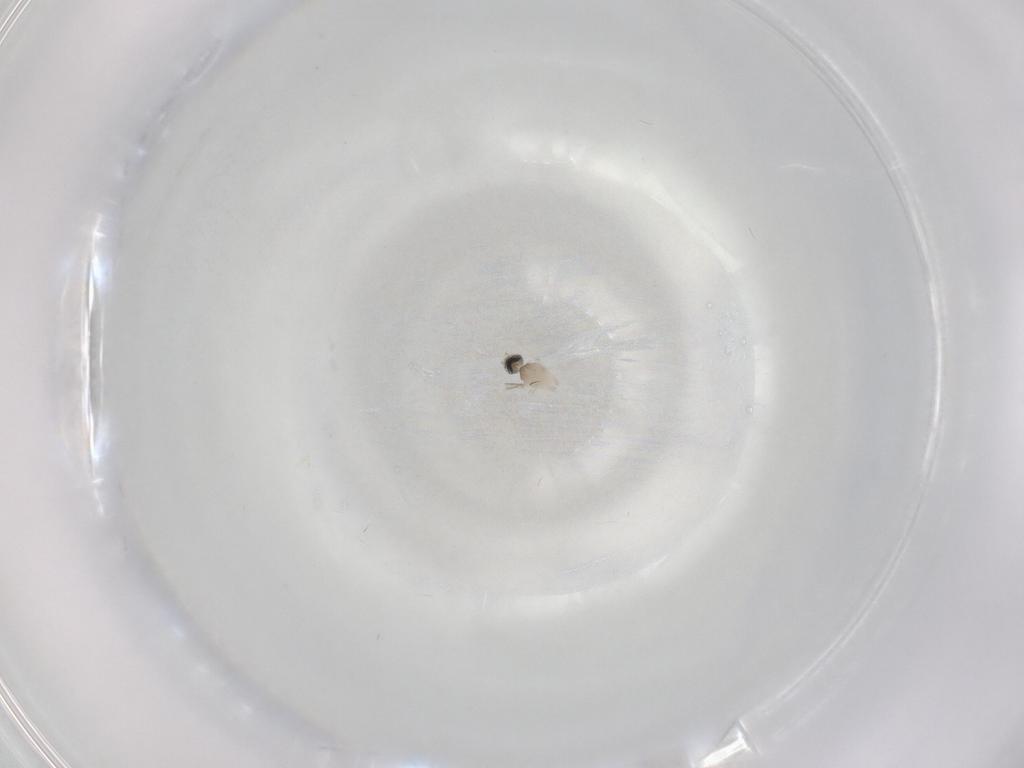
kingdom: Animalia
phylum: Arthropoda
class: Insecta
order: Diptera
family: Cecidomyiidae
